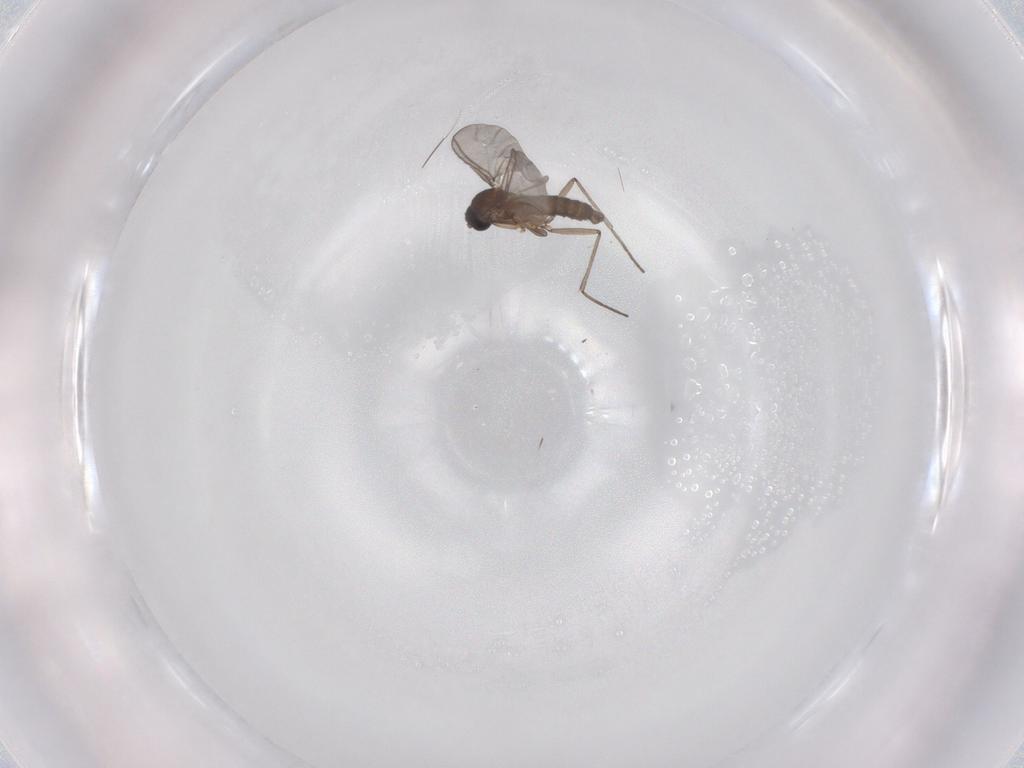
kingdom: Animalia
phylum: Arthropoda
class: Insecta
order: Diptera
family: Sciaridae
